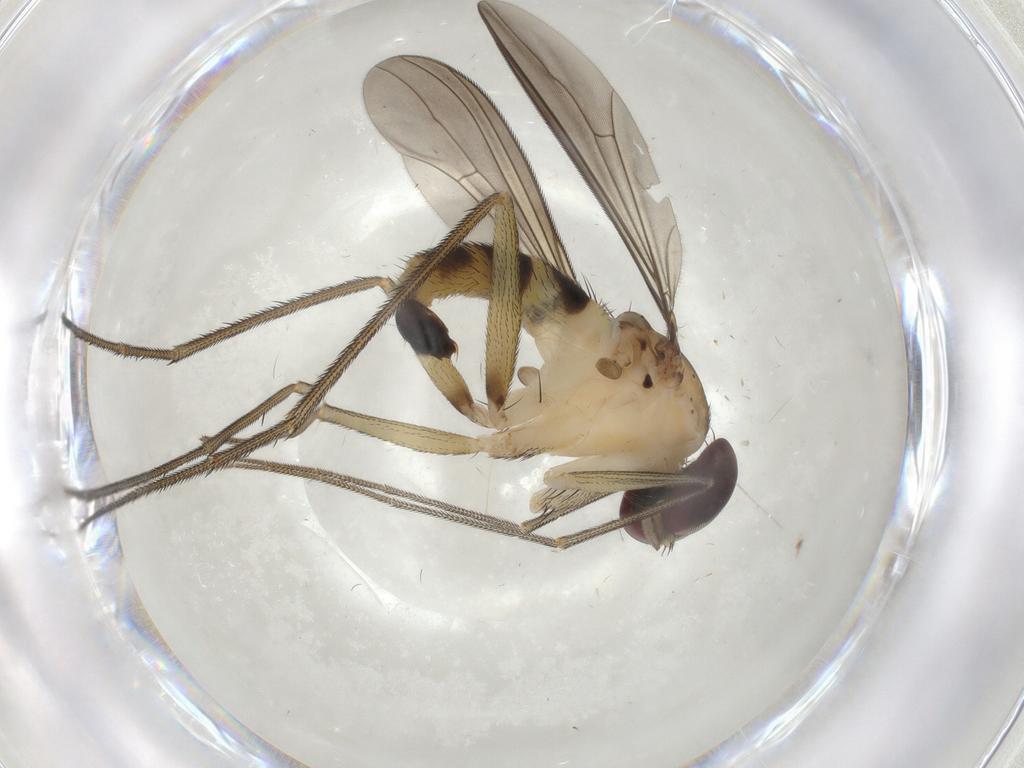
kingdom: Animalia
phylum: Arthropoda
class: Insecta
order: Diptera
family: Dolichopodidae
